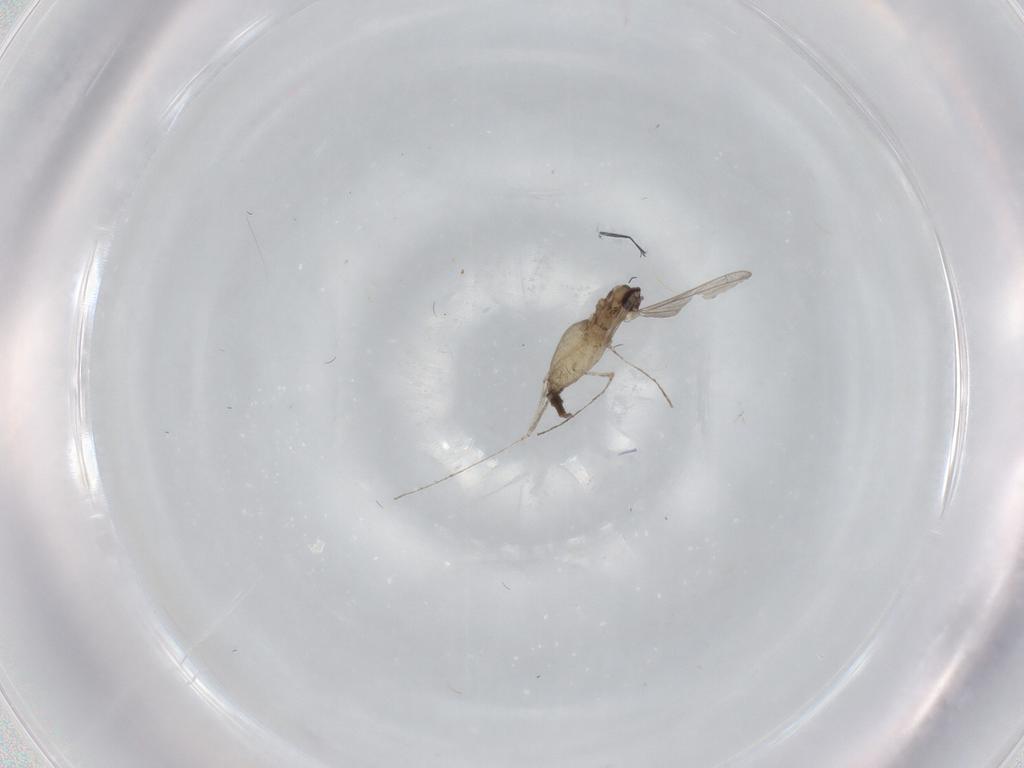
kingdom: Animalia
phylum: Arthropoda
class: Insecta
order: Diptera
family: Cecidomyiidae
